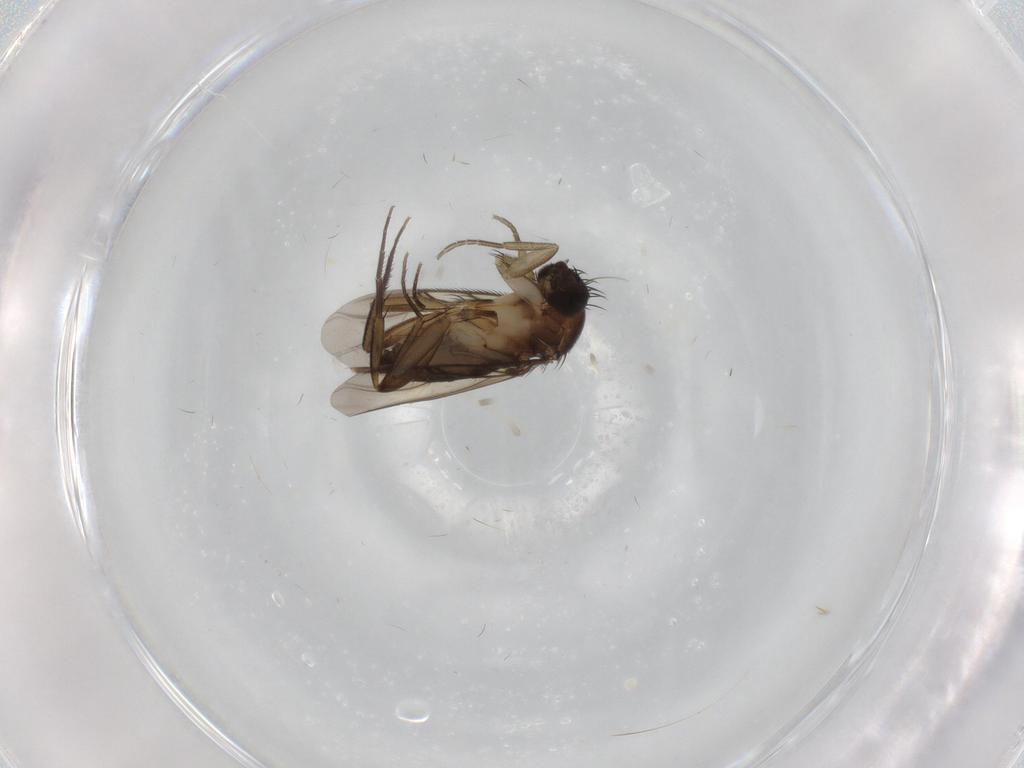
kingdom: Animalia
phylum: Arthropoda
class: Insecta
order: Diptera
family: Phoridae
